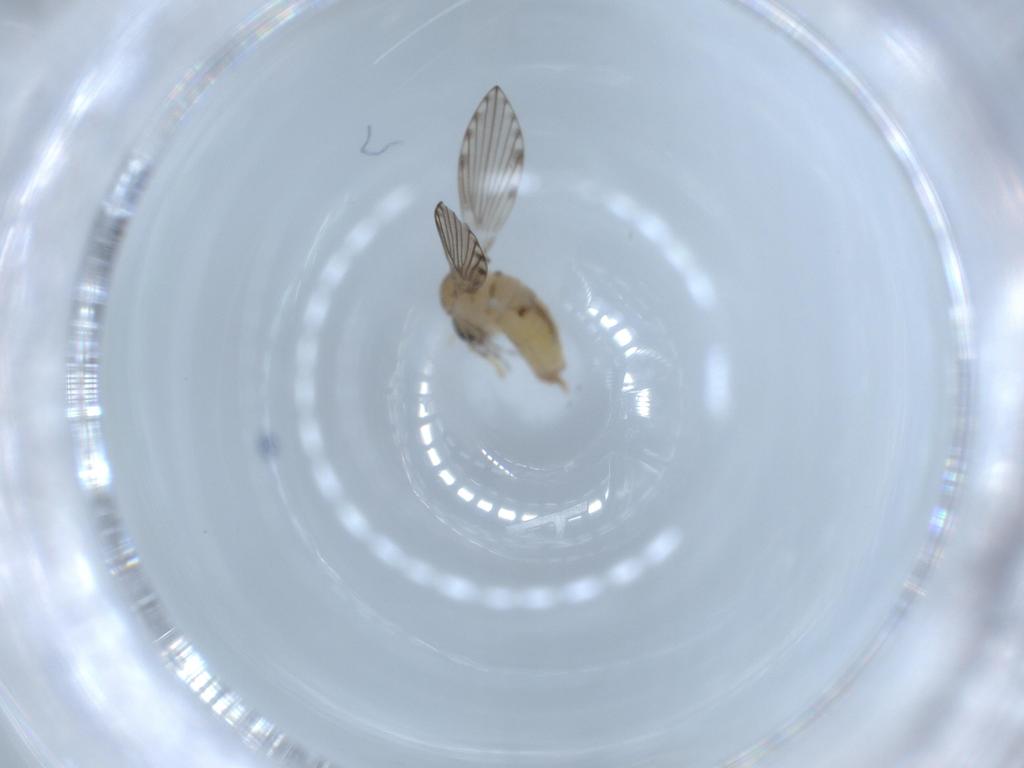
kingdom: Animalia
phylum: Arthropoda
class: Insecta
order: Diptera
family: Psychodidae
